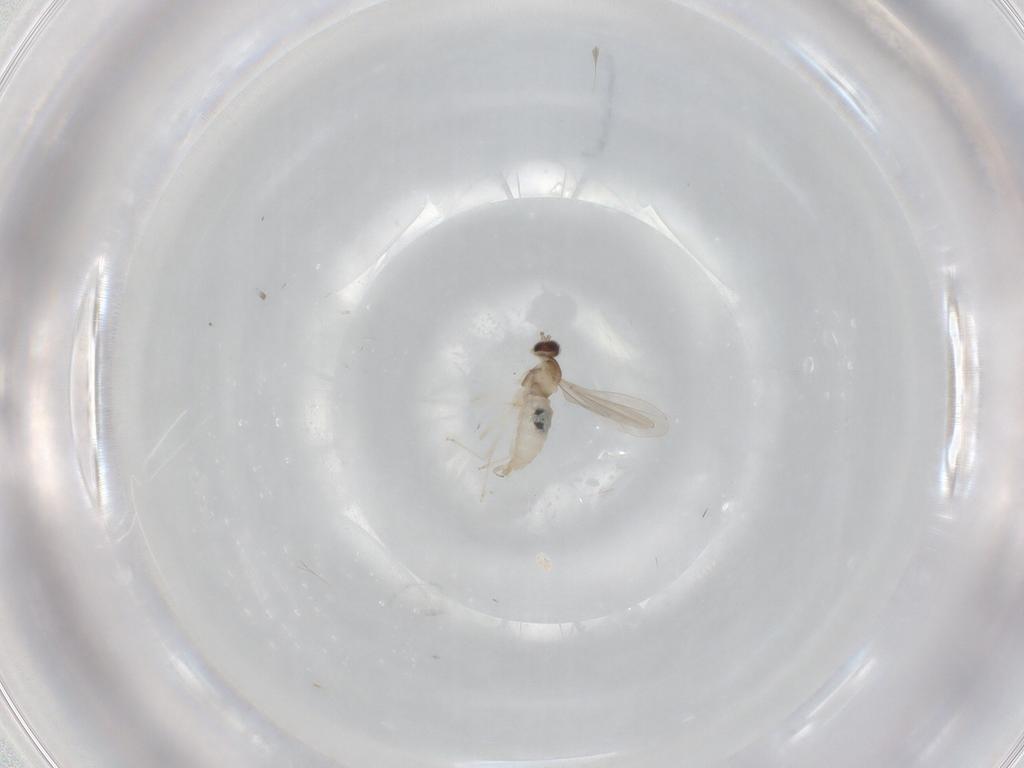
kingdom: Animalia
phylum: Arthropoda
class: Insecta
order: Diptera
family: Cecidomyiidae
